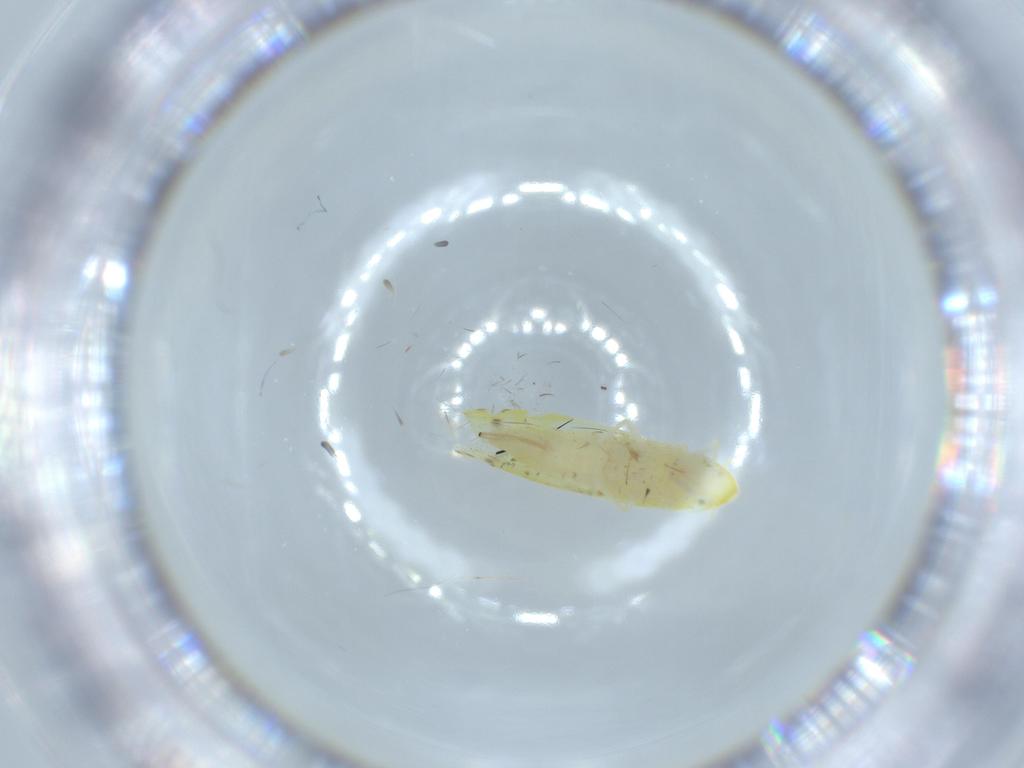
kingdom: Animalia
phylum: Arthropoda
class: Insecta
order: Hemiptera
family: Aleyrodidae
